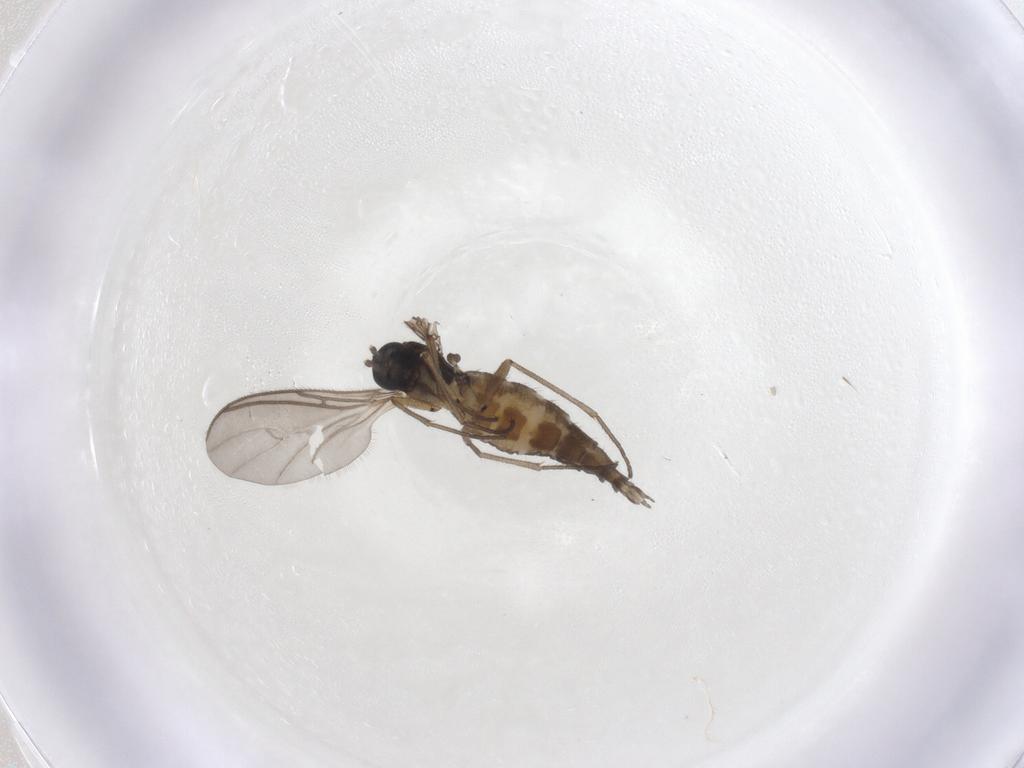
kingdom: Animalia
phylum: Arthropoda
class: Insecta
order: Diptera
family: Sciaridae
